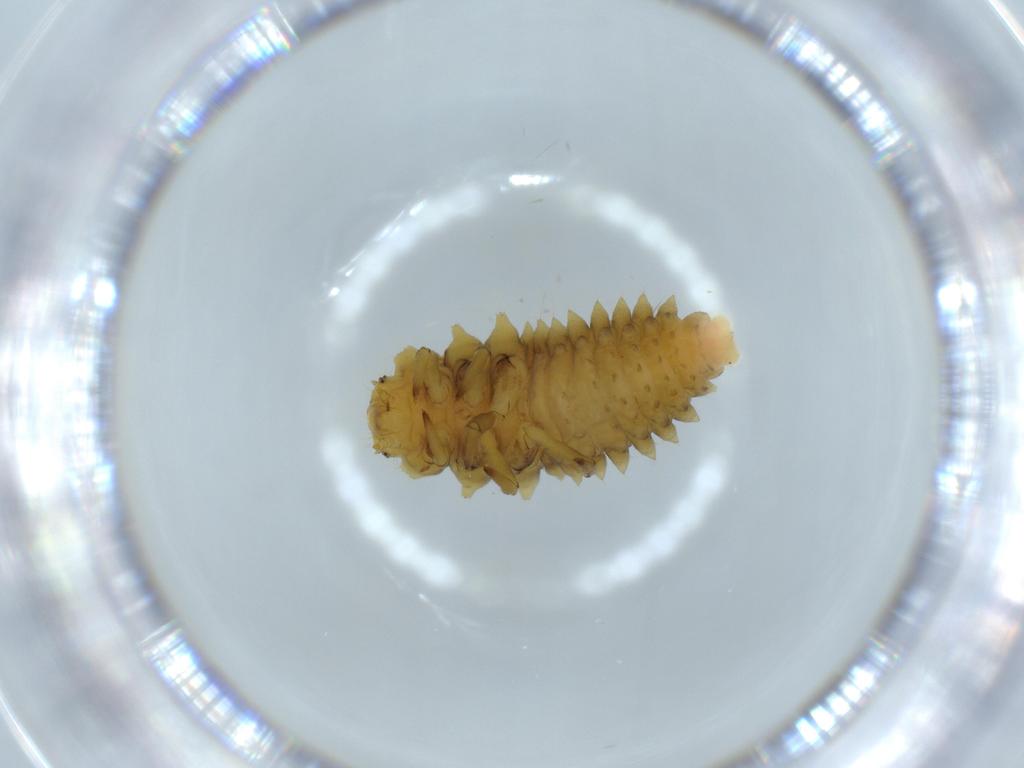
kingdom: Animalia
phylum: Arthropoda
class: Insecta
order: Coleoptera
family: Coccinellidae
